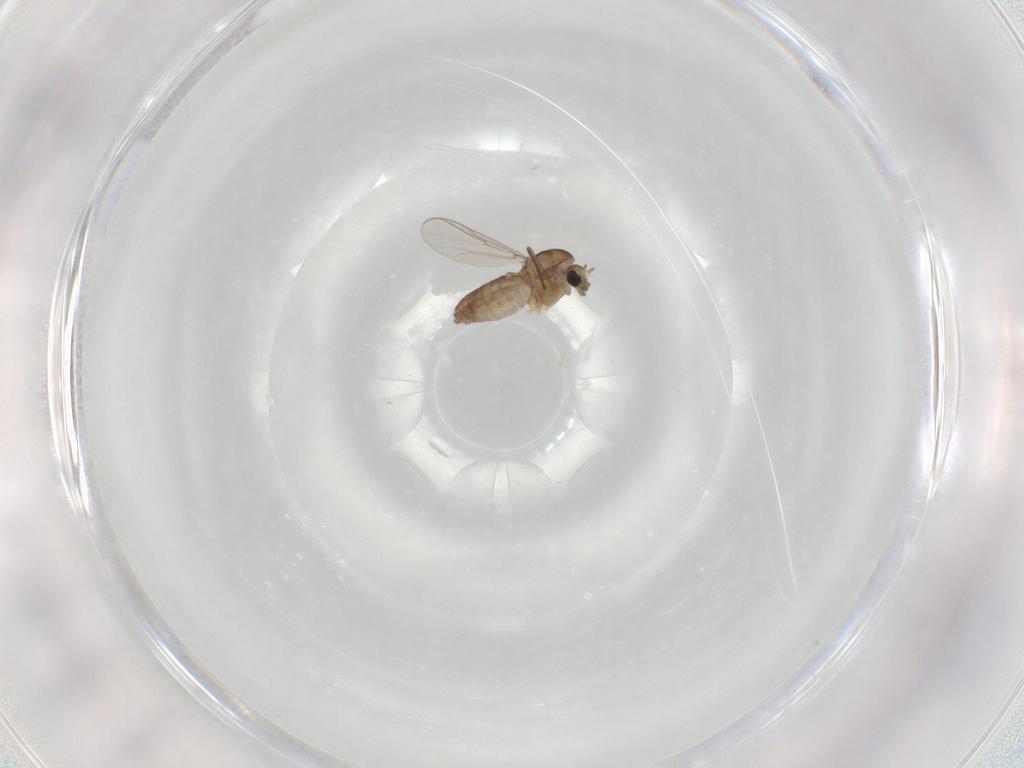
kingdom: Animalia
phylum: Arthropoda
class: Insecta
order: Diptera
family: Chironomidae
